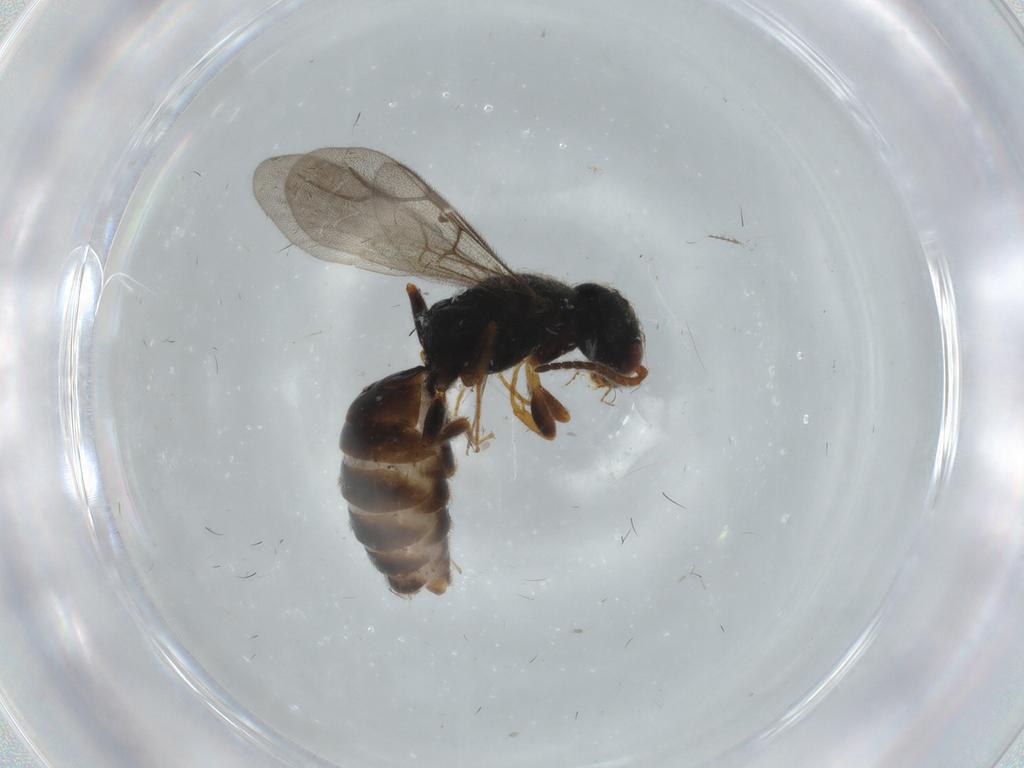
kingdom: Animalia
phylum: Arthropoda
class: Insecta
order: Hymenoptera
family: Bethylidae
